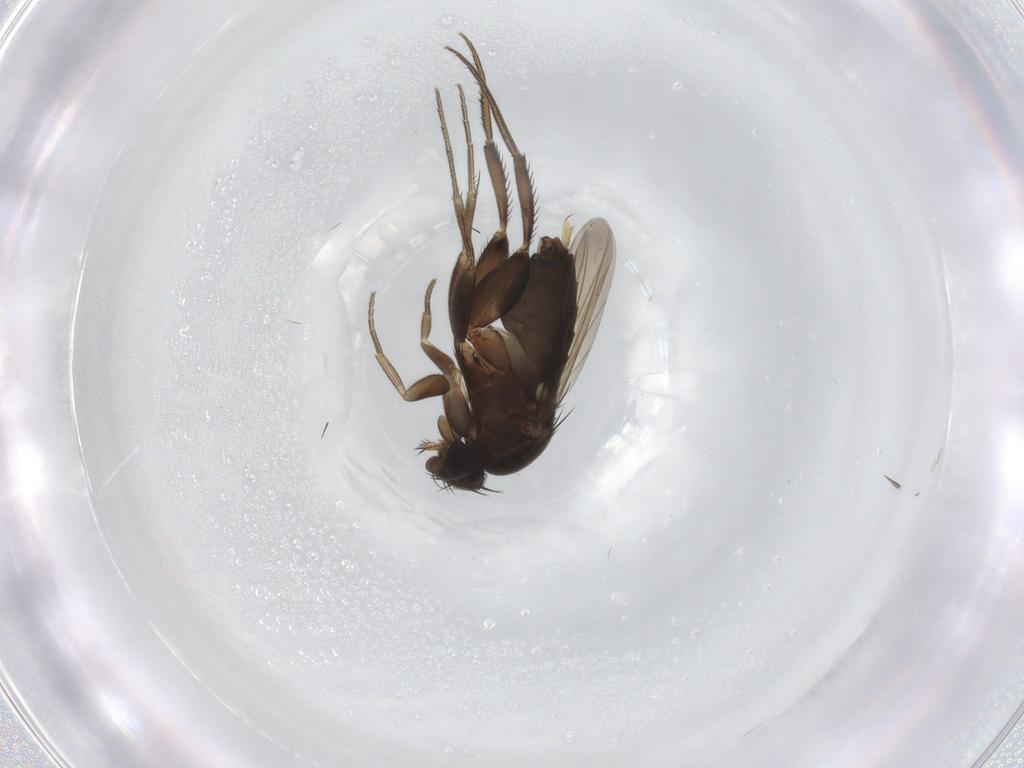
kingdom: Animalia
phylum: Arthropoda
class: Insecta
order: Diptera
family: Phoridae
